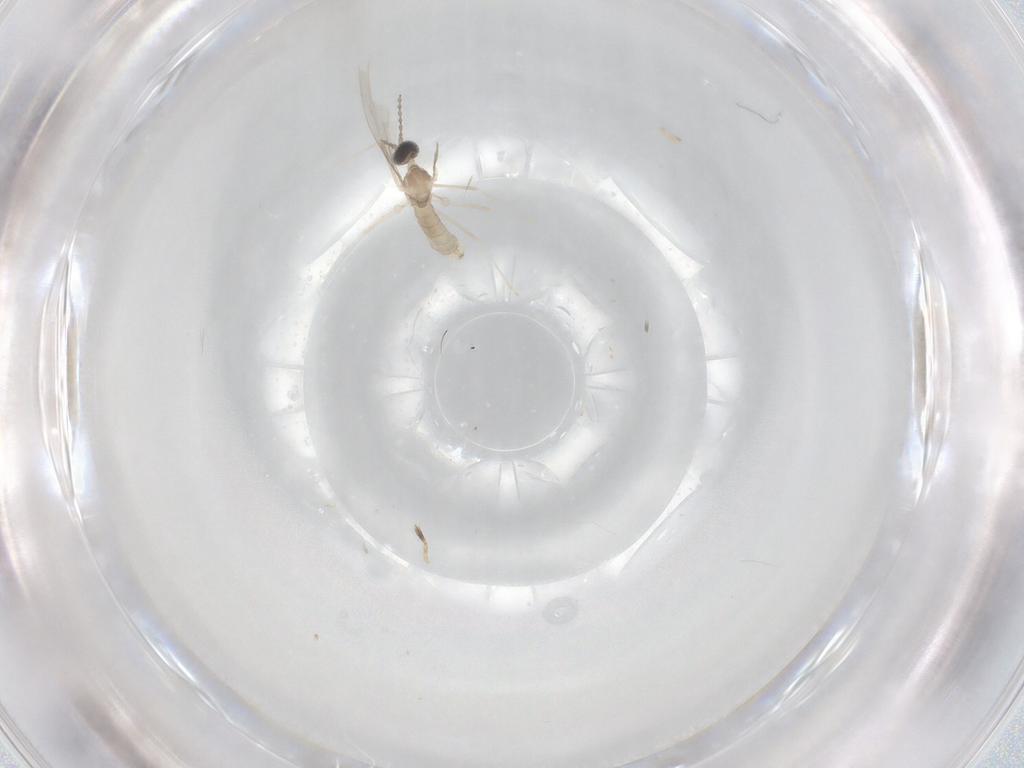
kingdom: Animalia
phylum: Arthropoda
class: Insecta
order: Diptera
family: Cecidomyiidae
